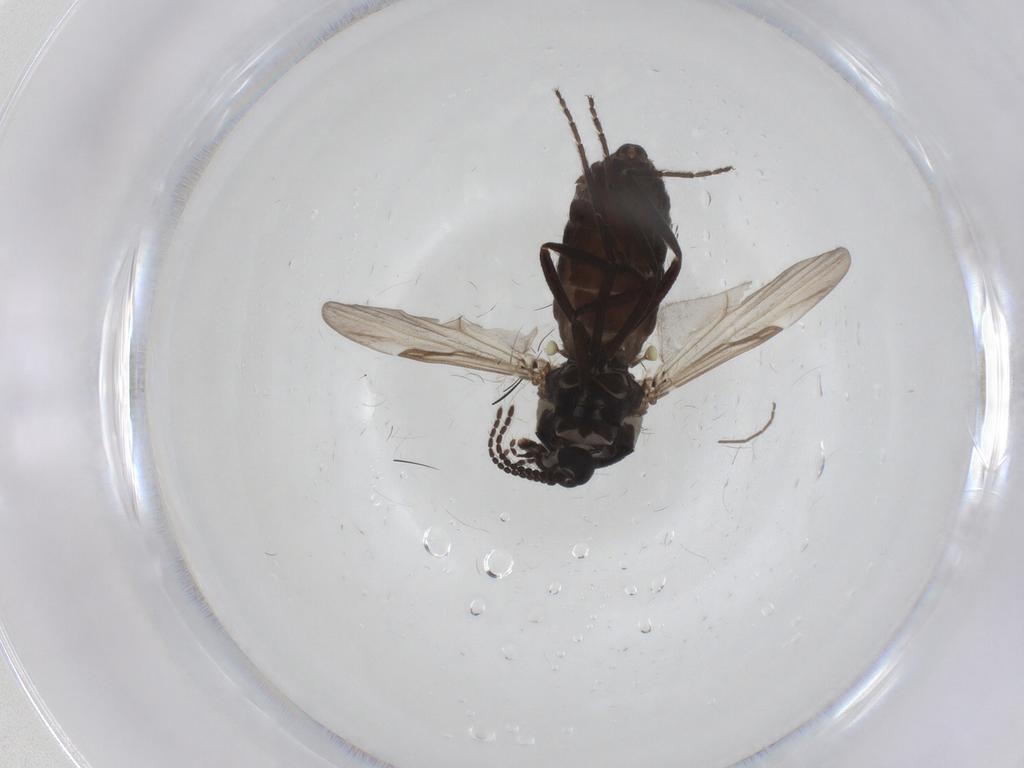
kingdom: Animalia
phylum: Arthropoda
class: Insecta
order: Diptera
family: Ceratopogonidae
